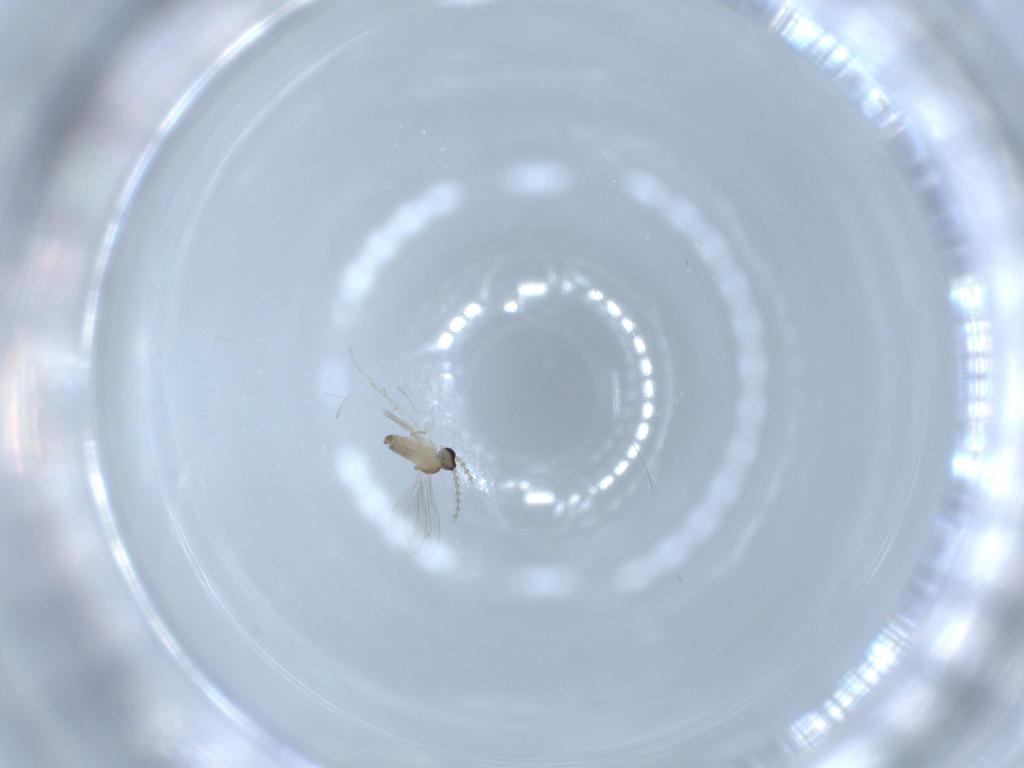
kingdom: Animalia
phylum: Arthropoda
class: Insecta
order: Diptera
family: Cecidomyiidae
